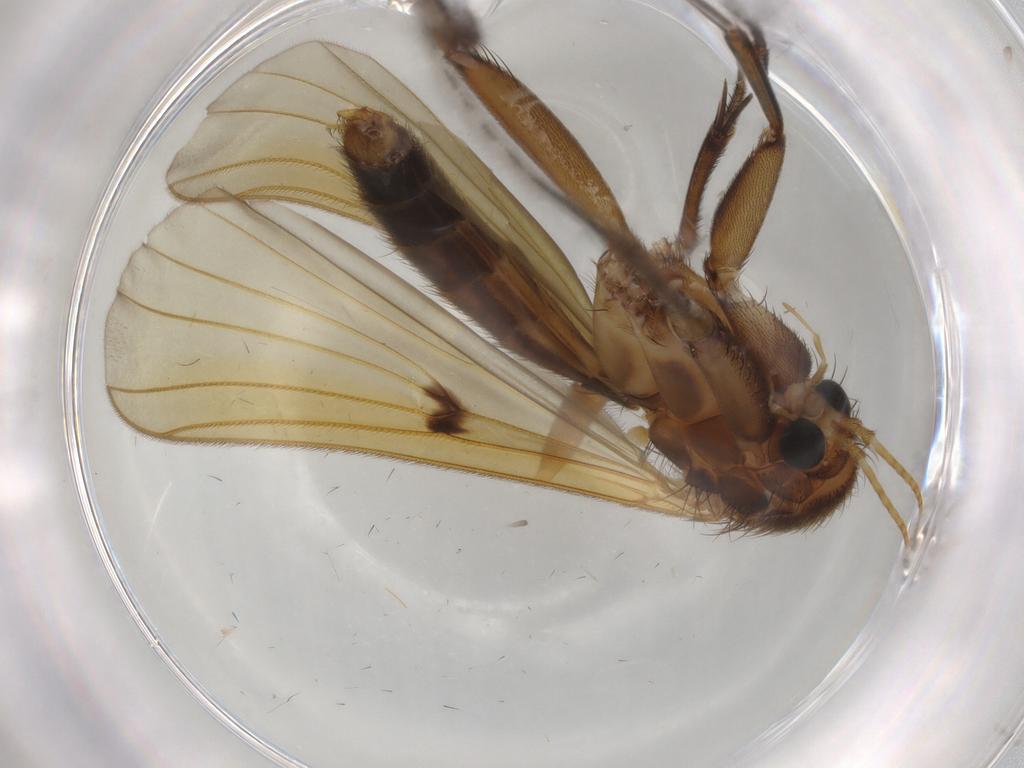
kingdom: Animalia
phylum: Arthropoda
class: Insecta
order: Diptera
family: Mycetophilidae
